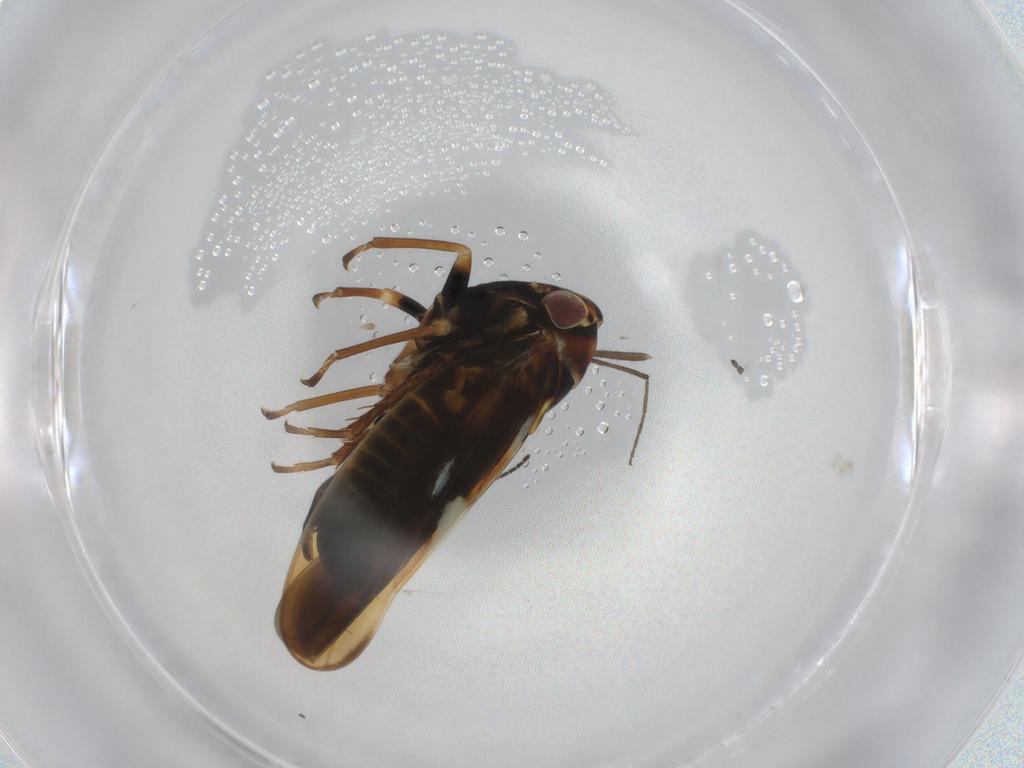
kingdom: Animalia
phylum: Arthropoda
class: Insecta
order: Hemiptera
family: Cicadellidae
